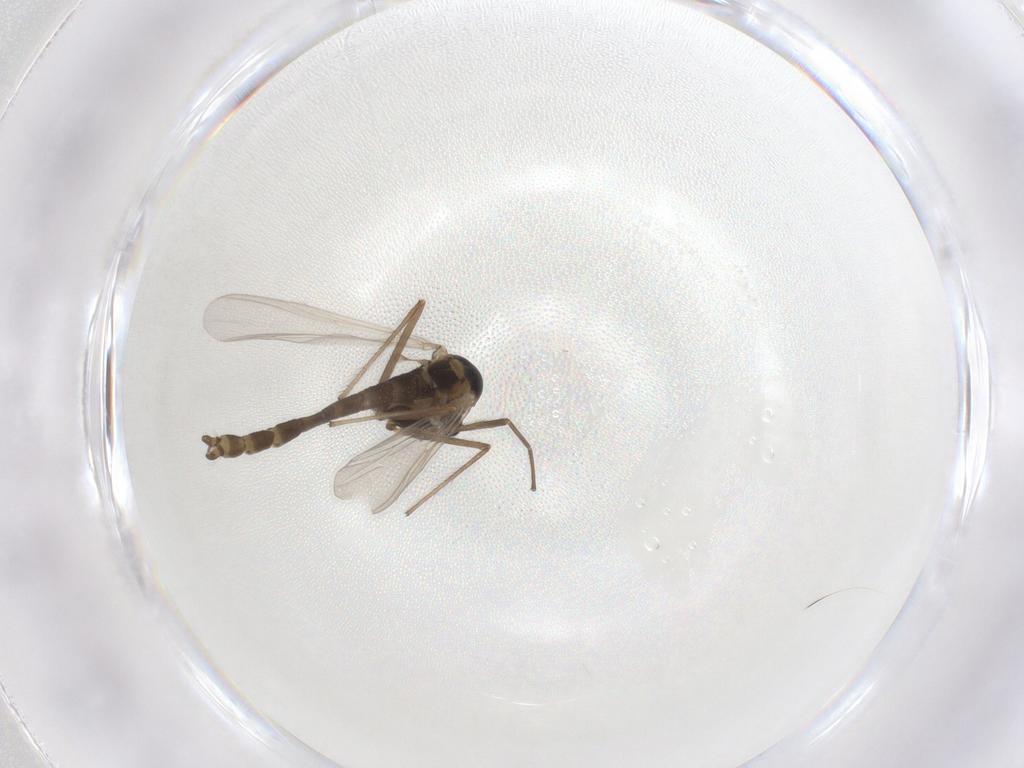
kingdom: Animalia
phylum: Arthropoda
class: Insecta
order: Diptera
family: Chironomidae
